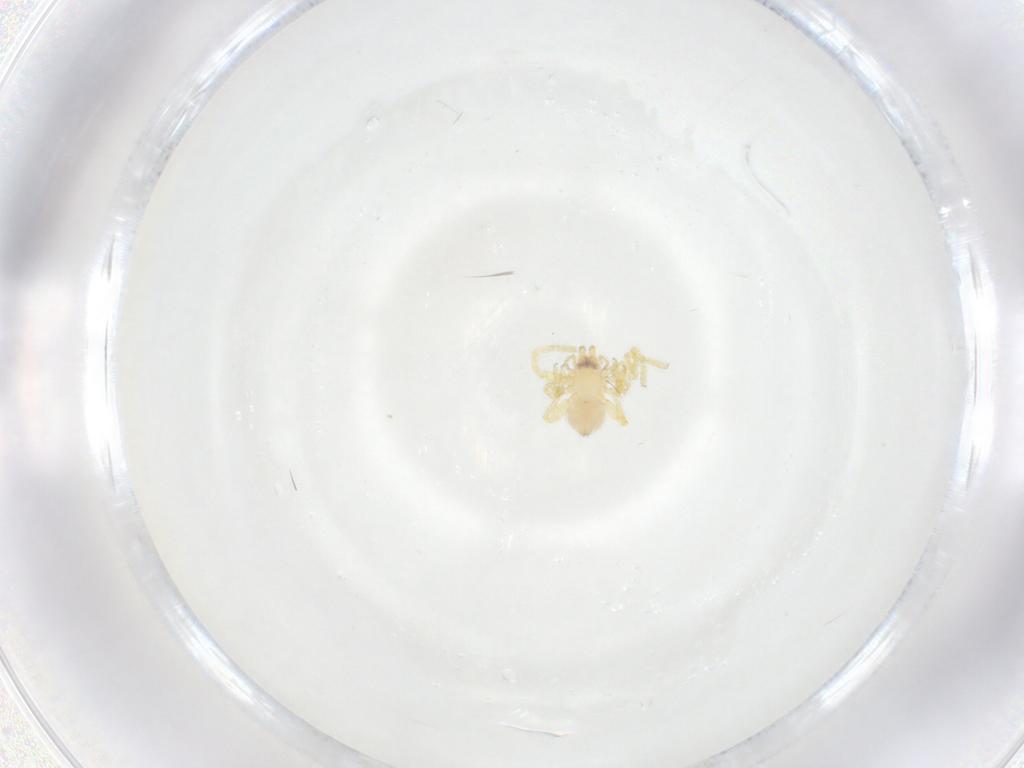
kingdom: Animalia
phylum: Arthropoda
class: Arachnida
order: Araneae
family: Oonopidae
